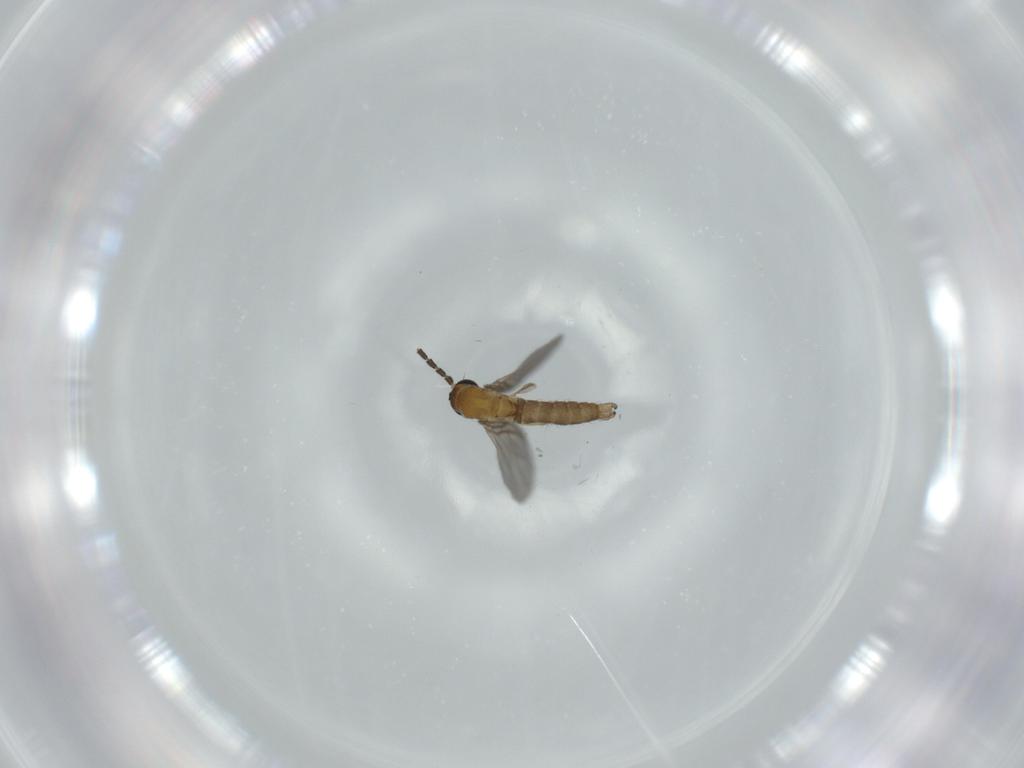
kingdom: Animalia
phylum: Arthropoda
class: Insecta
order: Diptera
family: Sciaridae
